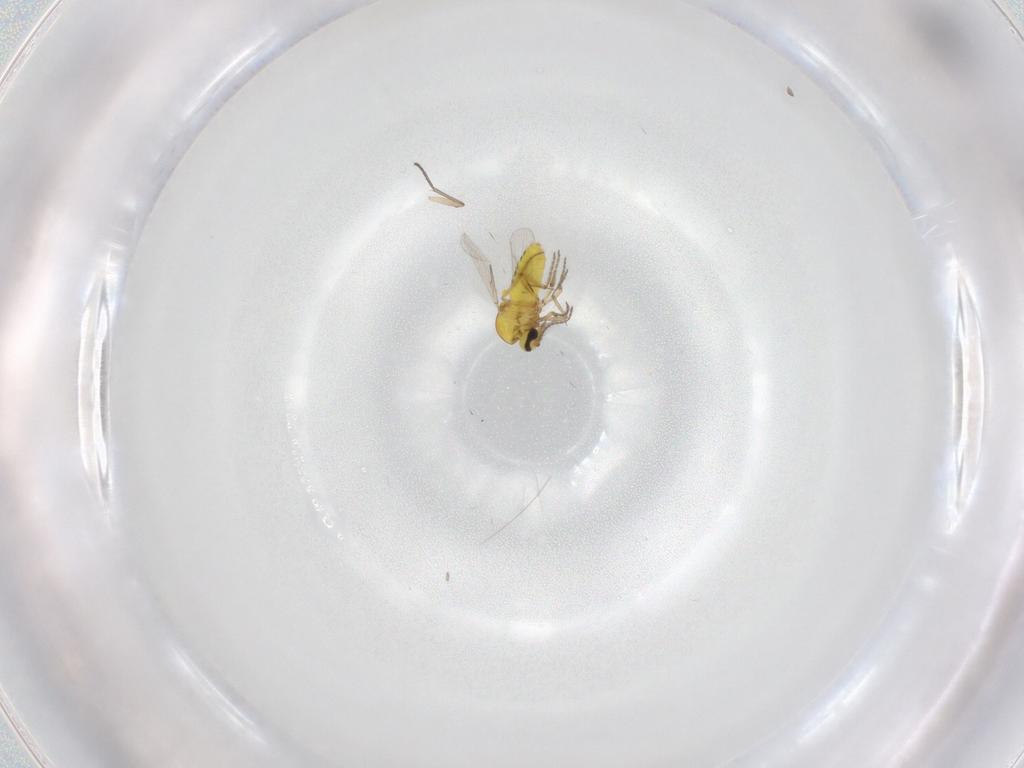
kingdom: Animalia
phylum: Arthropoda
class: Insecta
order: Diptera
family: Ceratopogonidae
